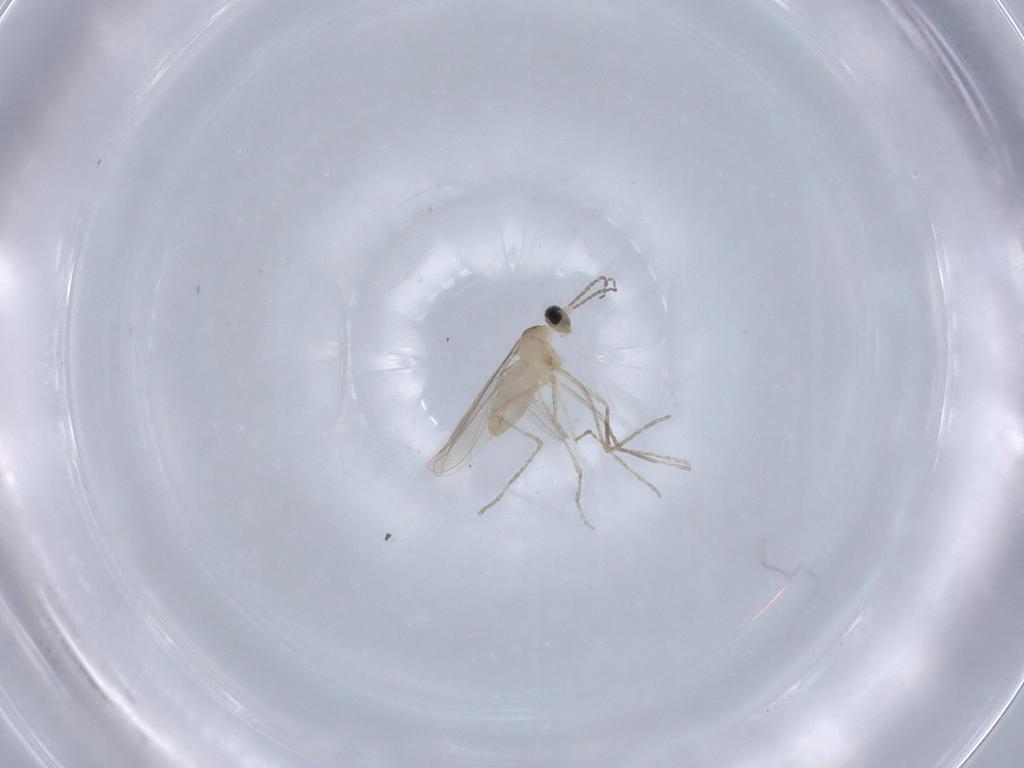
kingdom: Animalia
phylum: Arthropoda
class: Insecta
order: Diptera
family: Cecidomyiidae
